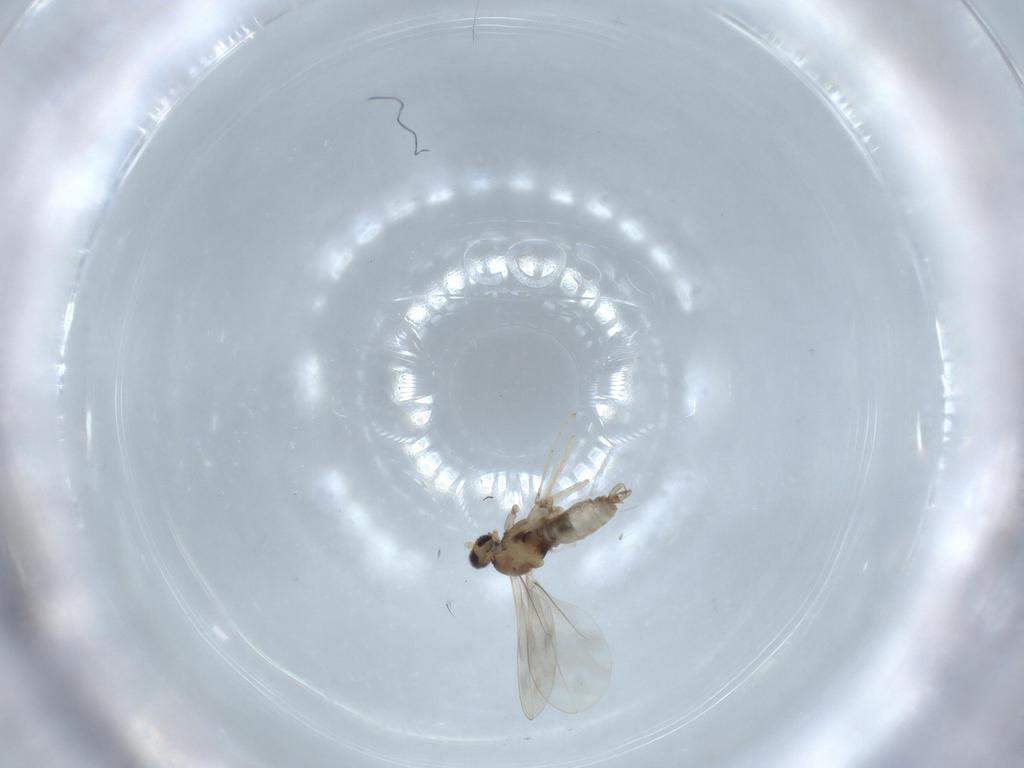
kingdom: Animalia
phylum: Arthropoda
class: Insecta
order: Diptera
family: Cecidomyiidae
